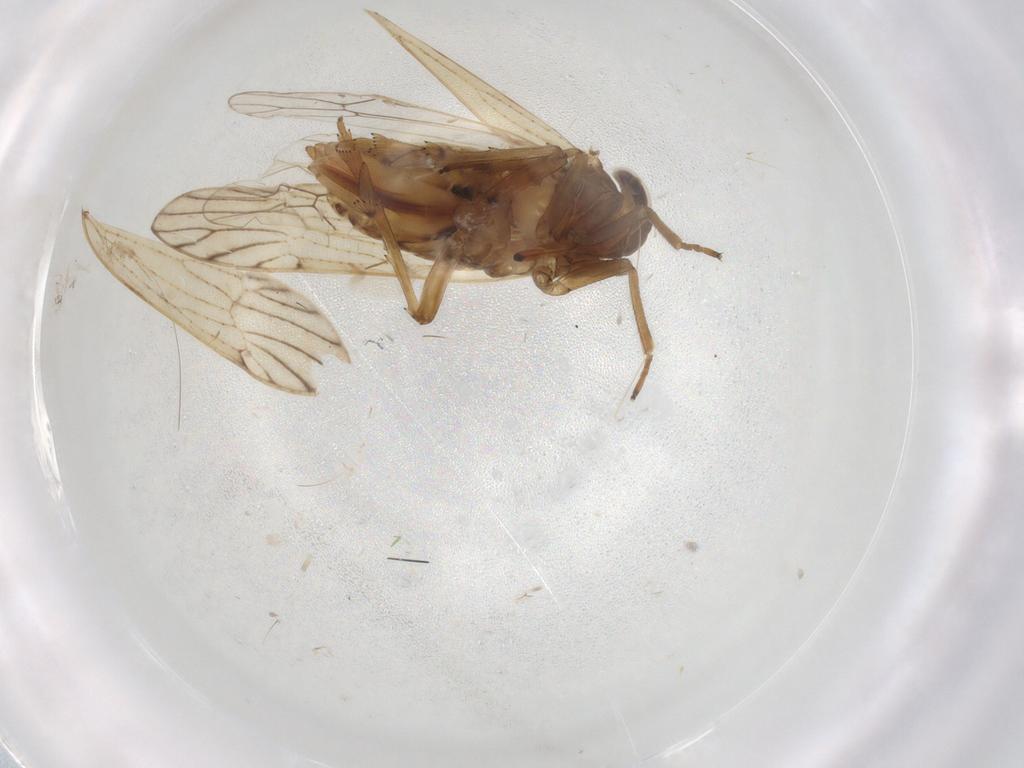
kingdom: Animalia
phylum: Arthropoda
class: Insecta
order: Hemiptera
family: Delphacidae
